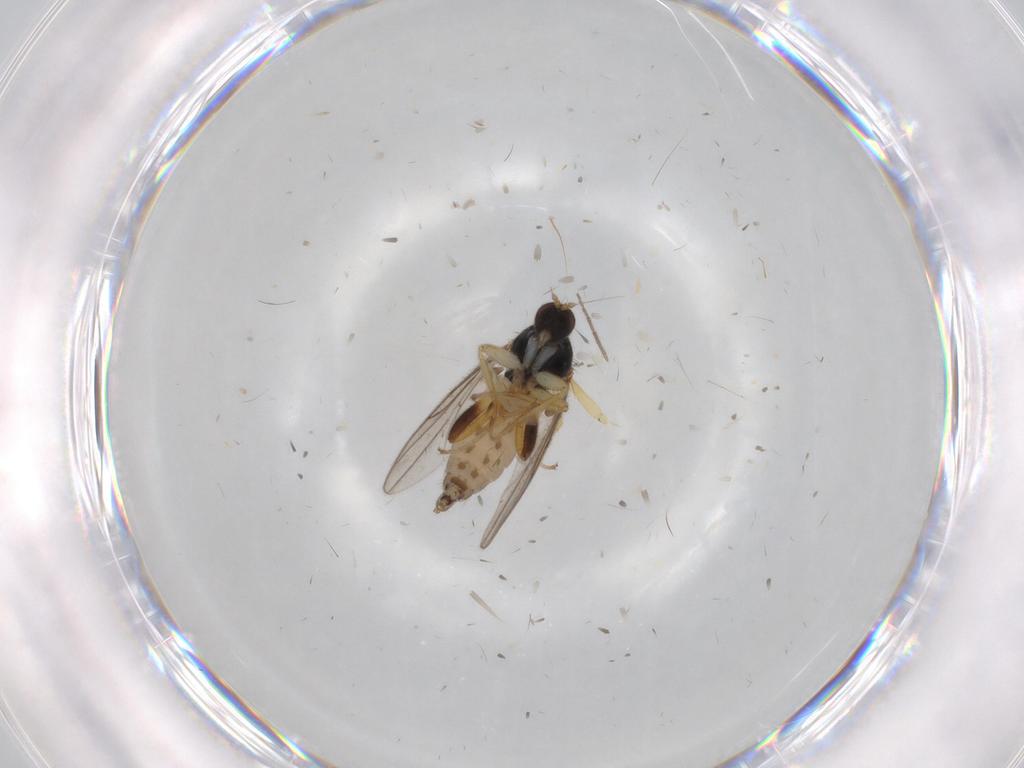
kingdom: Animalia
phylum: Arthropoda
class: Insecta
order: Diptera
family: Hybotidae
